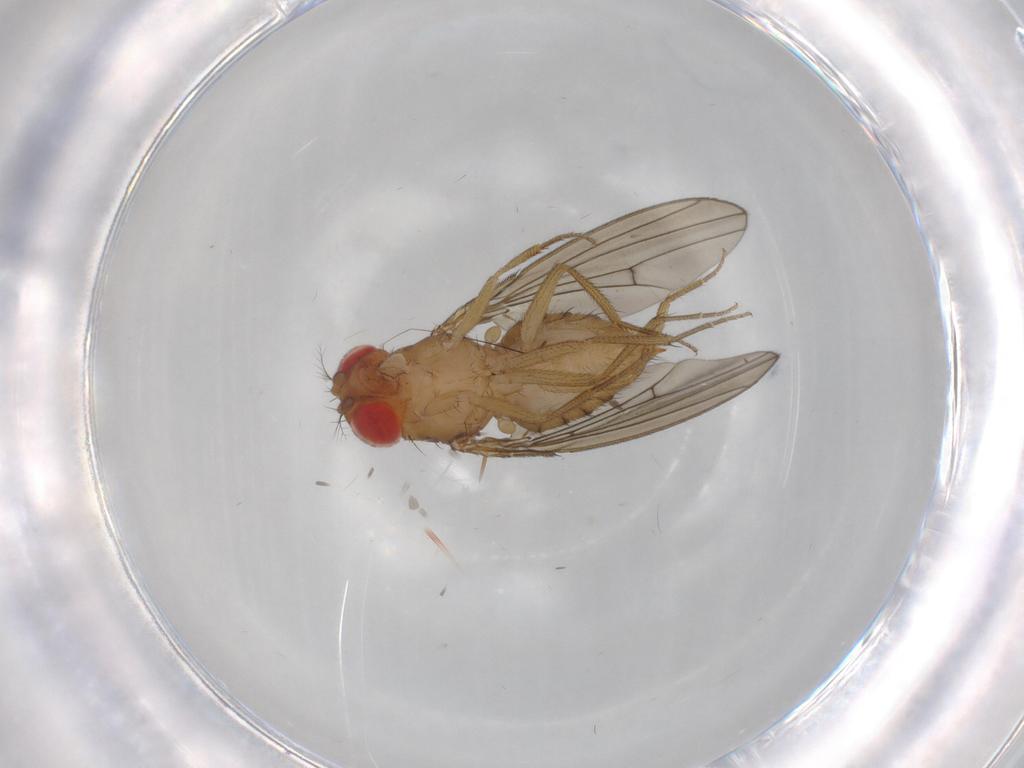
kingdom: Animalia
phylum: Arthropoda
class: Insecta
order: Diptera
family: Drosophilidae
